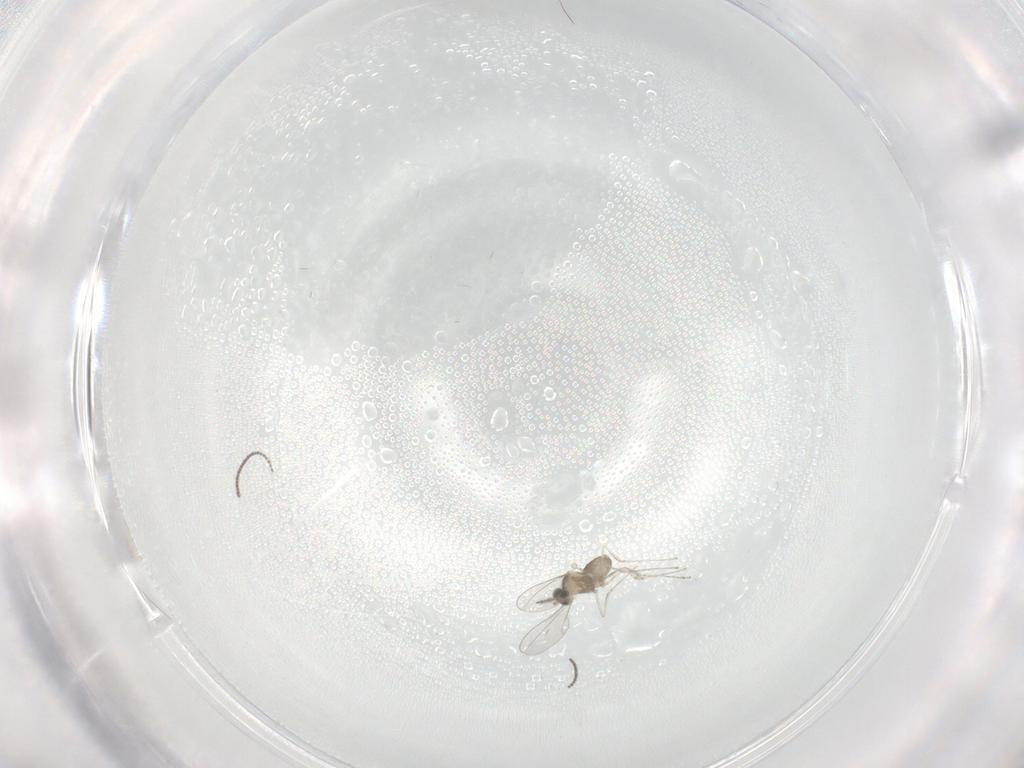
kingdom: Animalia
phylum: Arthropoda
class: Insecta
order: Diptera
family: Cecidomyiidae
